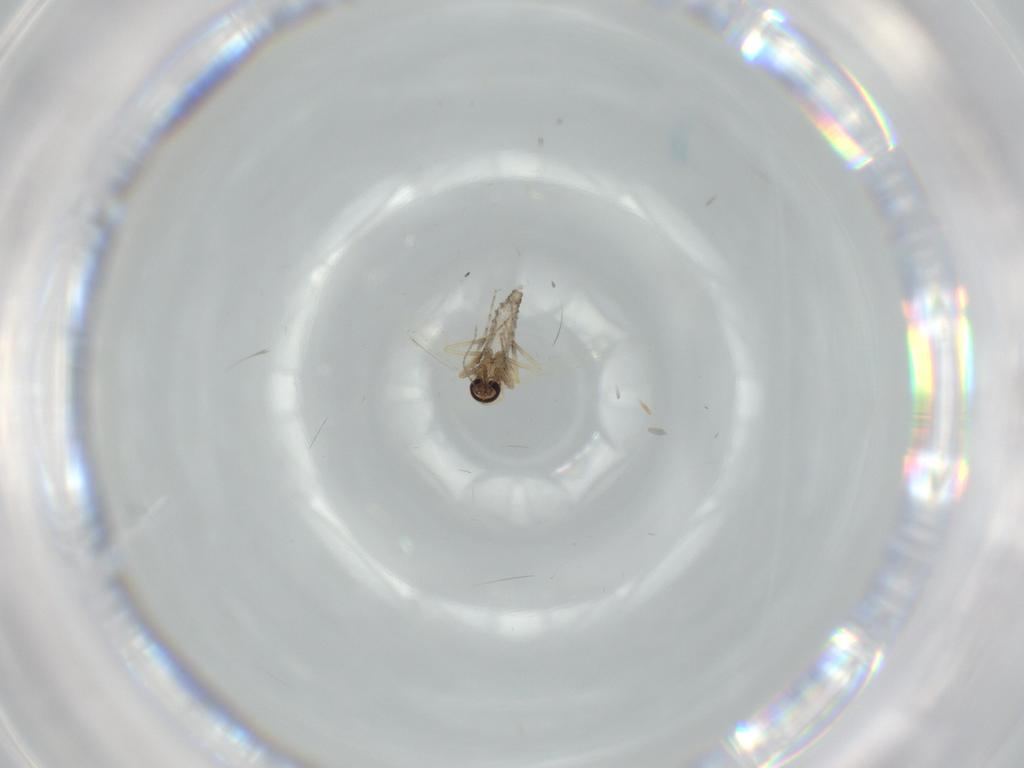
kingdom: Animalia
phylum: Arthropoda
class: Insecta
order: Diptera
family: Ceratopogonidae
